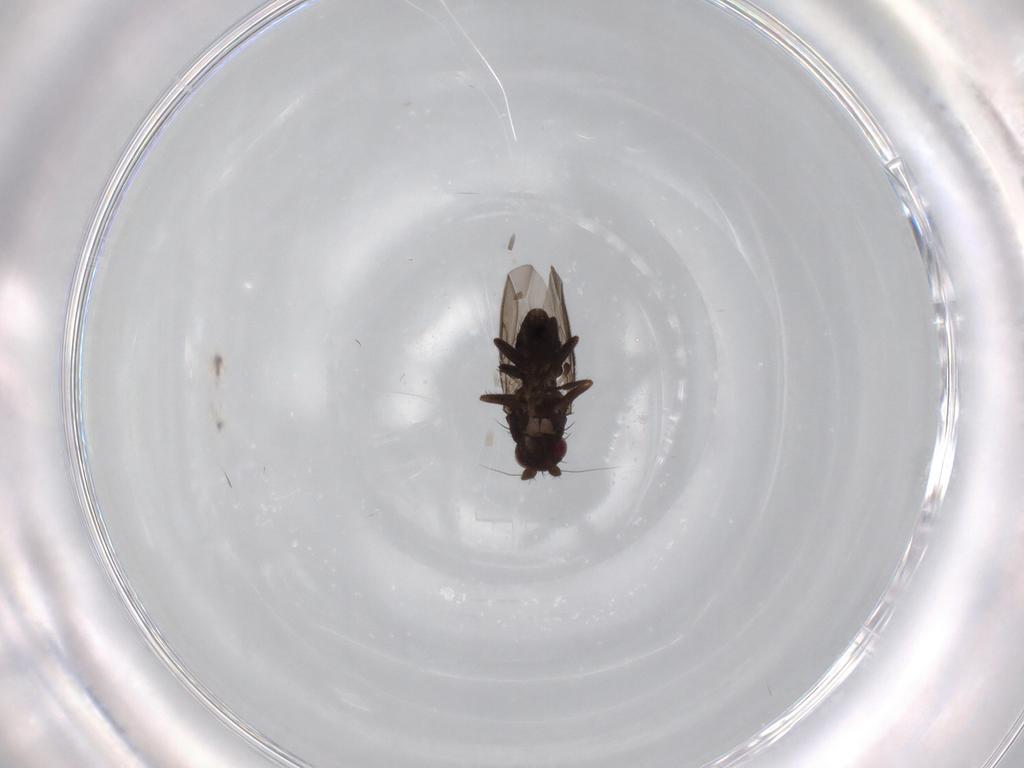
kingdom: Animalia
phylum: Arthropoda
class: Insecta
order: Diptera
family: Sphaeroceridae
